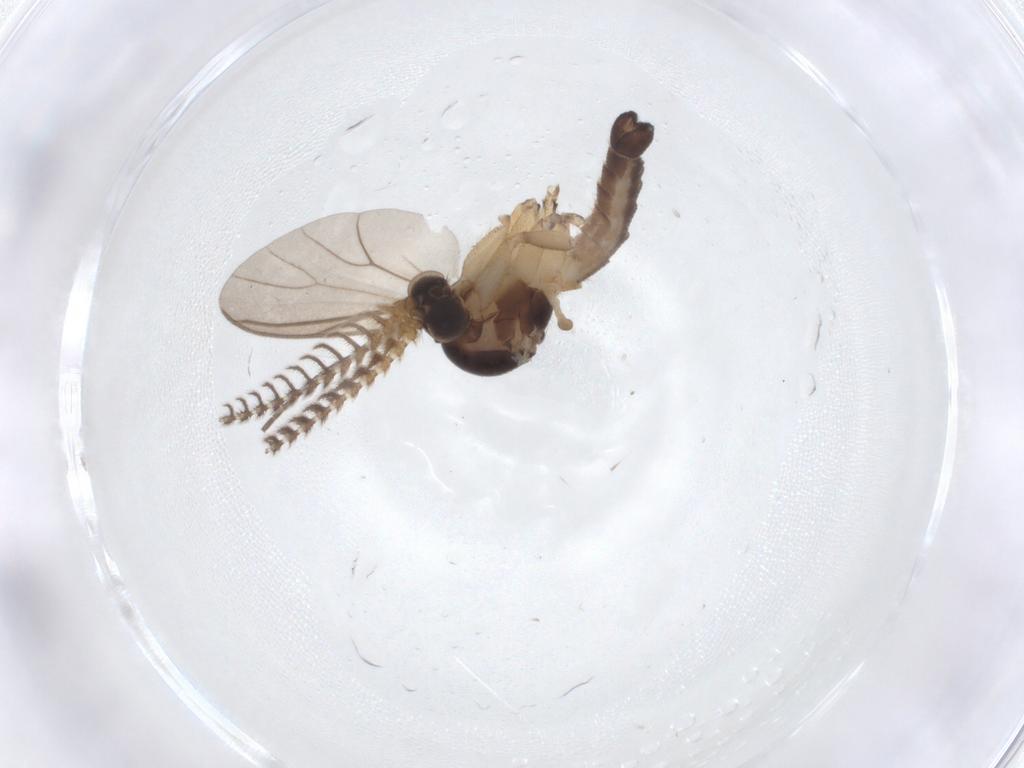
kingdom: Animalia
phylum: Arthropoda
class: Insecta
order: Diptera
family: Mycetophilidae
